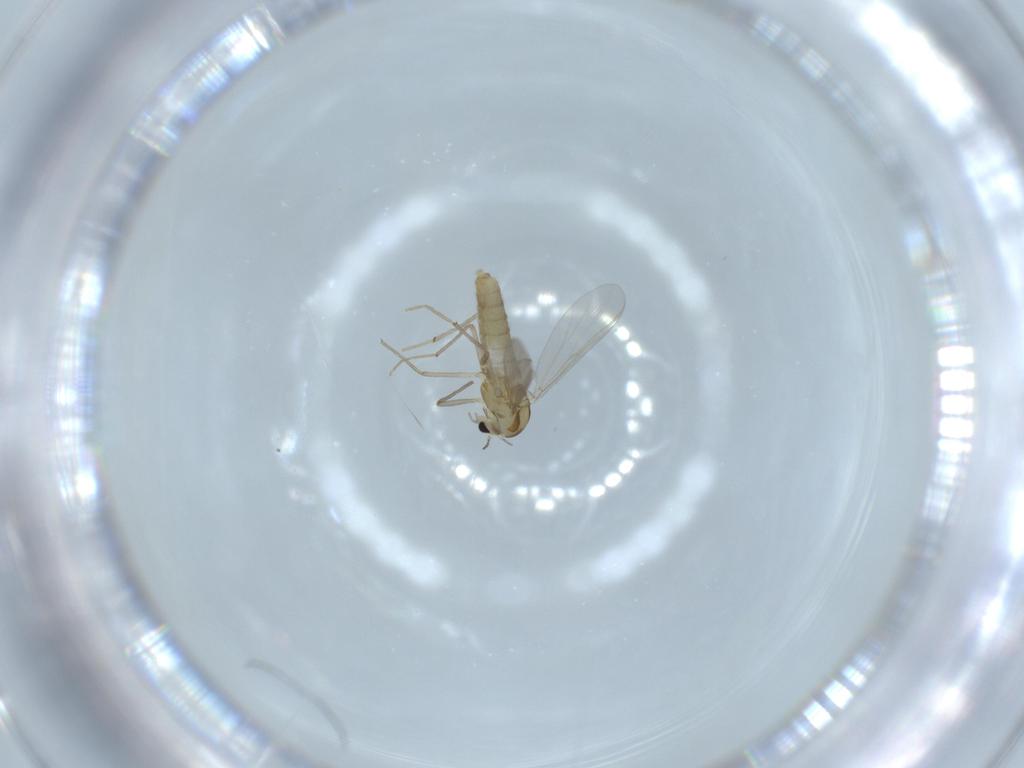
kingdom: Animalia
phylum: Arthropoda
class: Insecta
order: Diptera
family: Chironomidae
